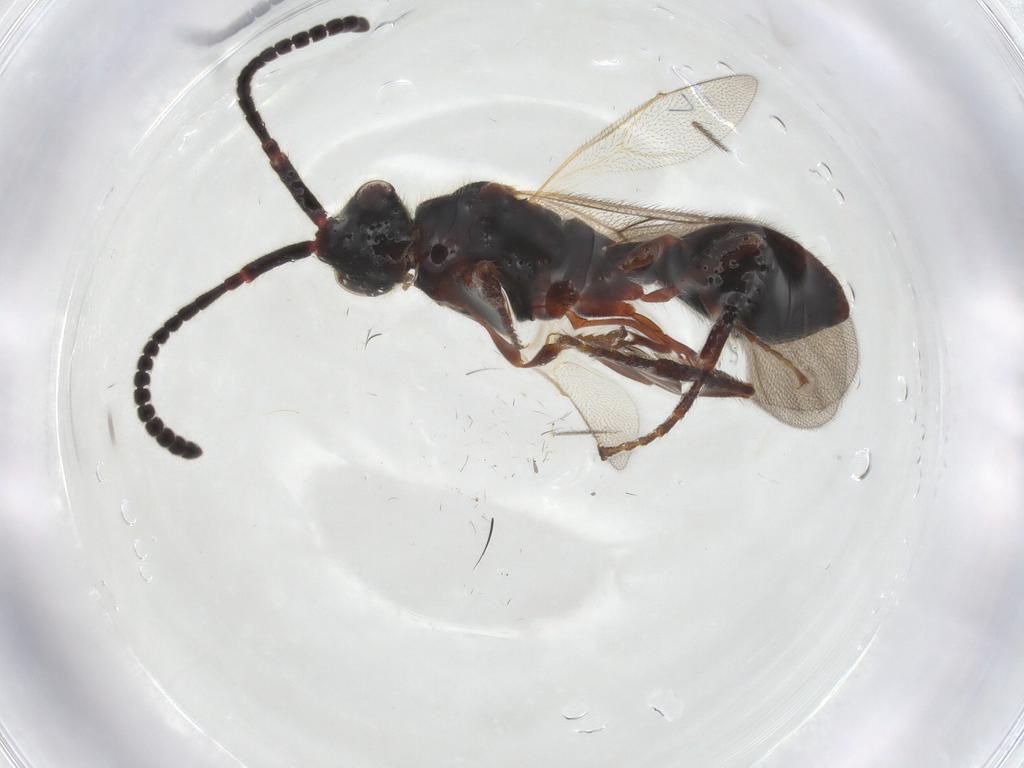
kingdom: Animalia
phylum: Arthropoda
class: Insecta
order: Hymenoptera
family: Diapriidae
